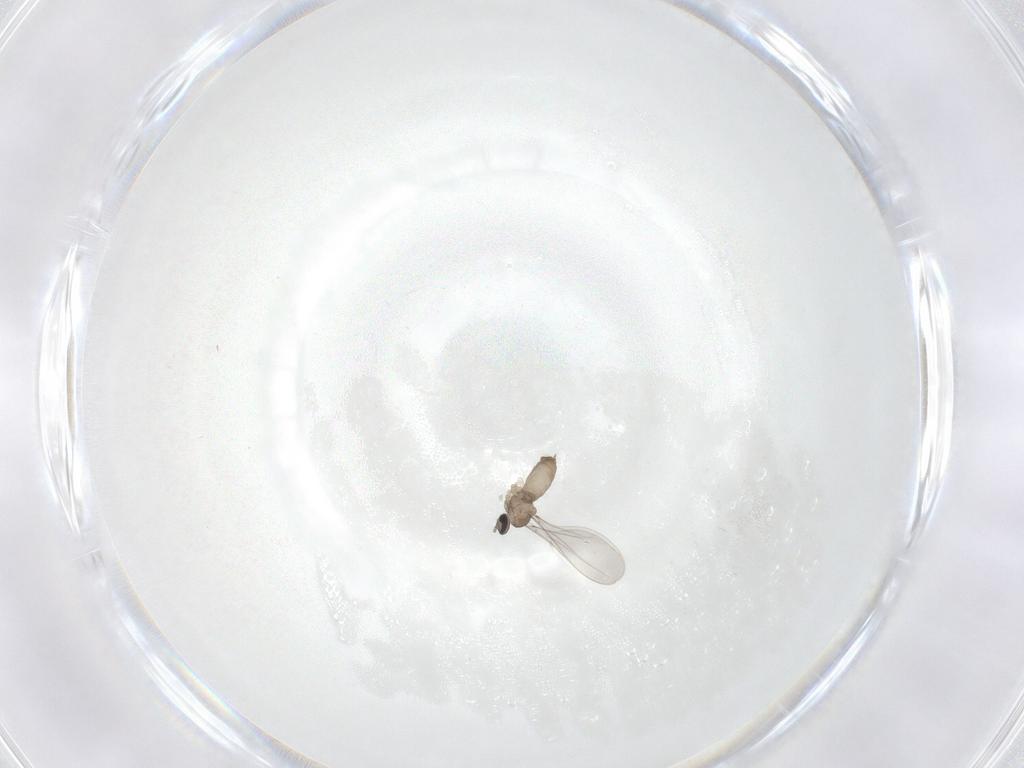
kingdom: Animalia
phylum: Arthropoda
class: Insecta
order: Diptera
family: Cecidomyiidae
